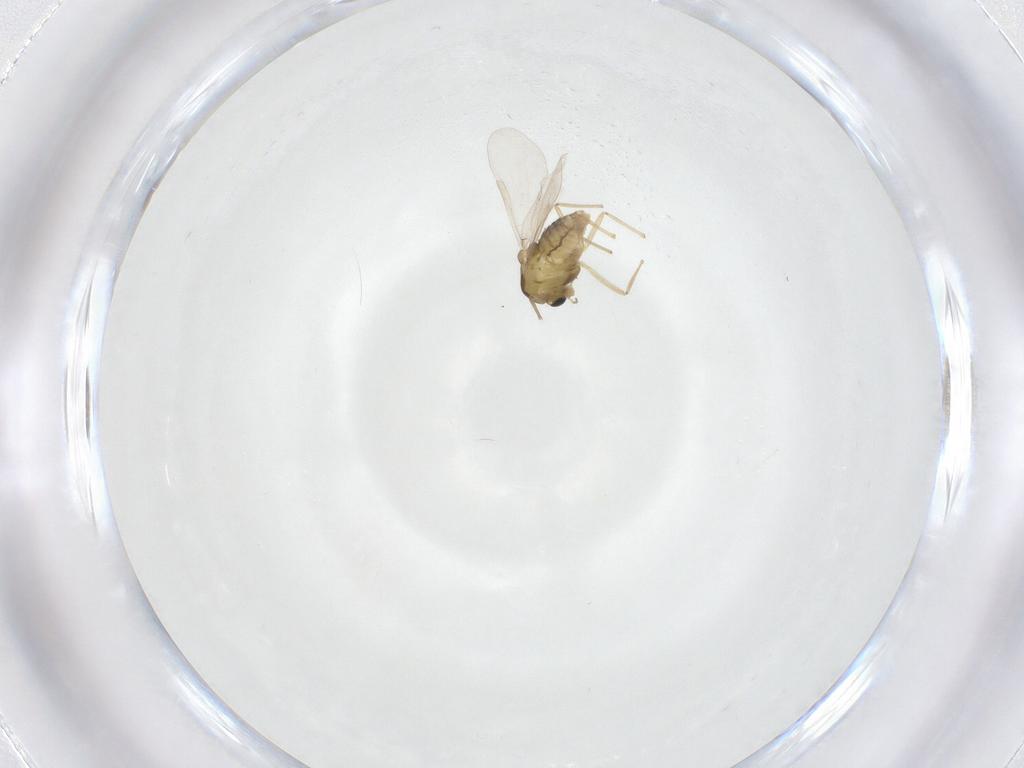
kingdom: Animalia
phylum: Arthropoda
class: Insecta
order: Diptera
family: Chironomidae
